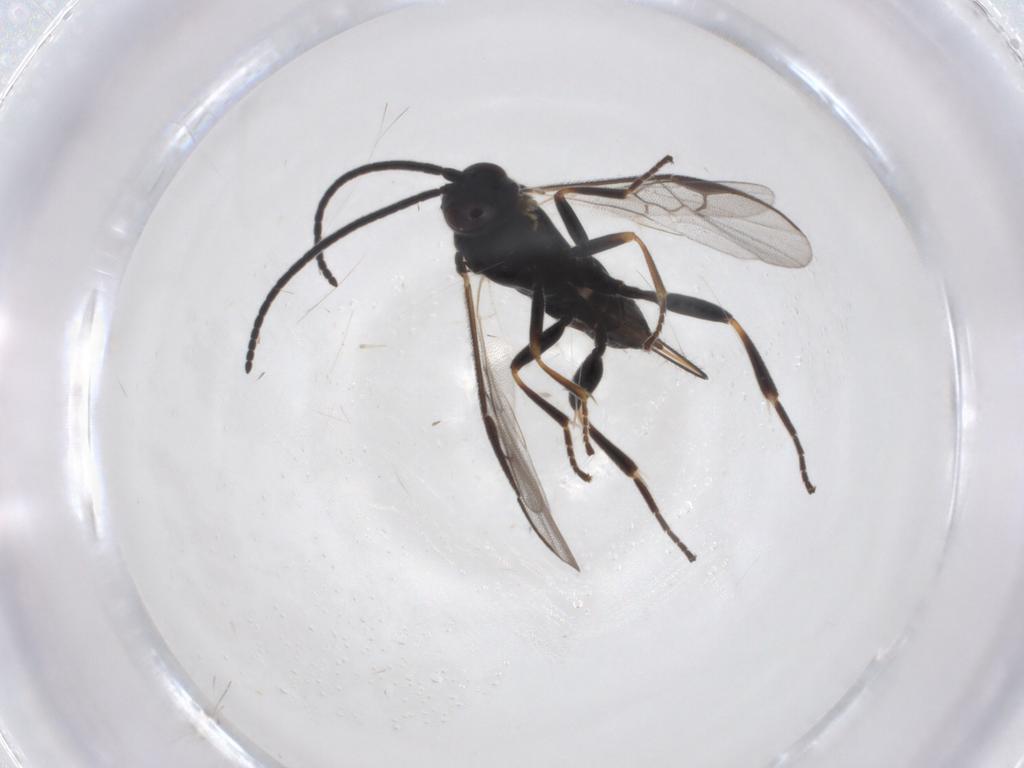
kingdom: Animalia
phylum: Arthropoda
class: Insecta
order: Hymenoptera
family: Braconidae
